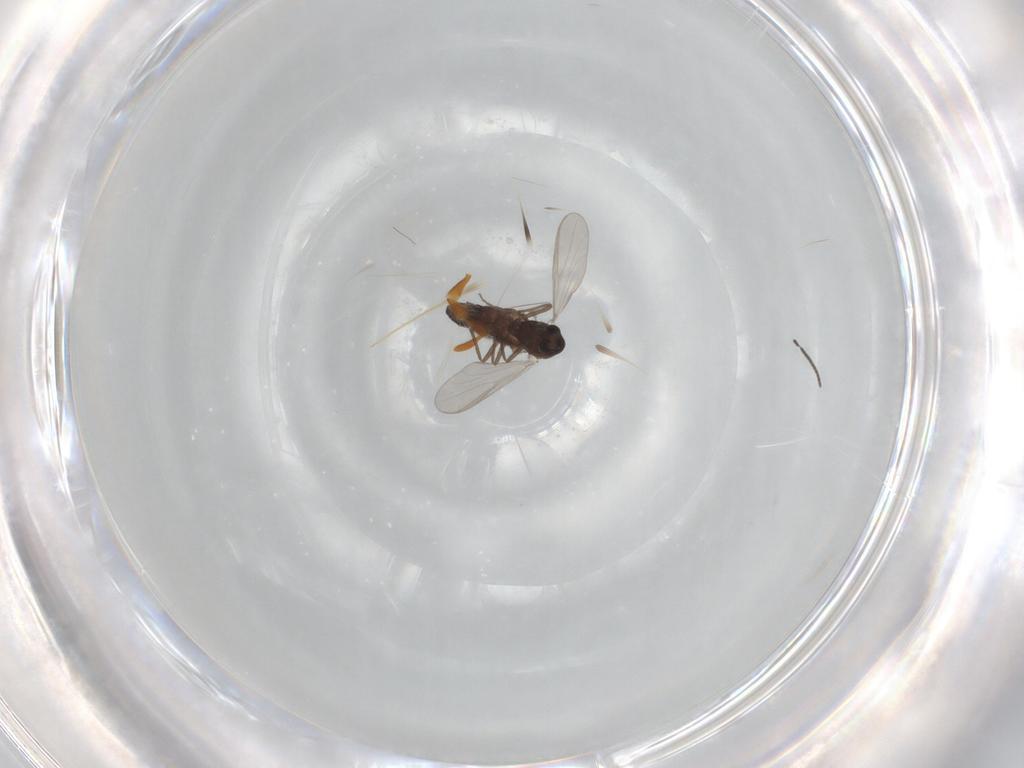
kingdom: Animalia
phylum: Arthropoda
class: Insecta
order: Diptera
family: Chironomidae
